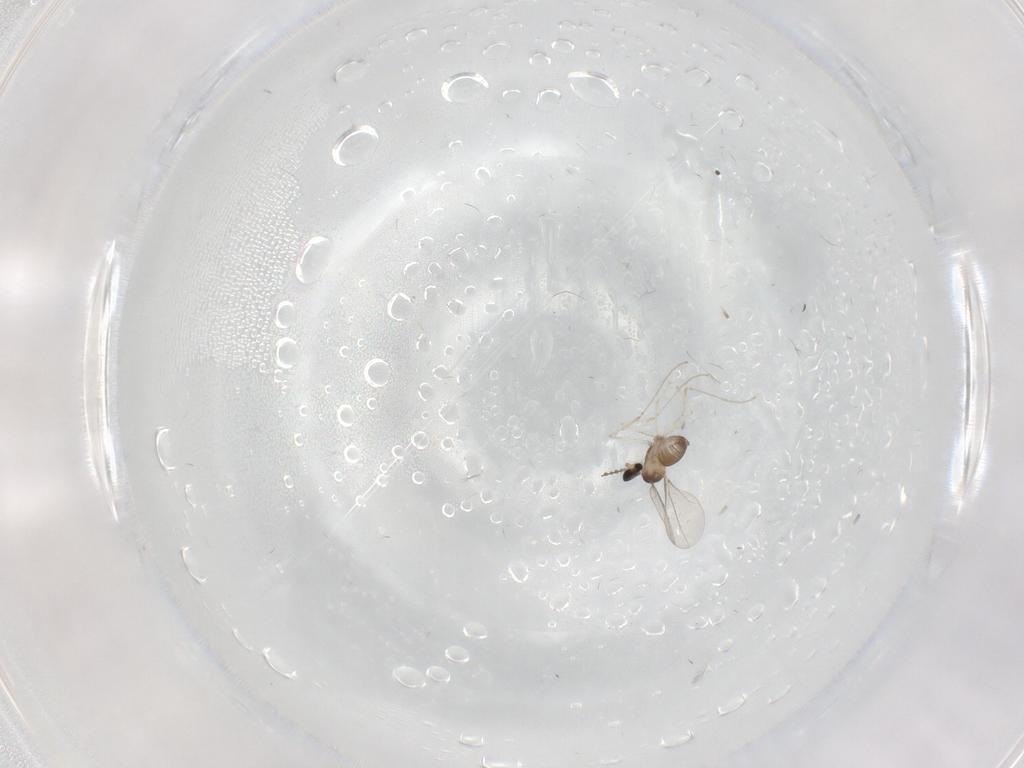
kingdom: Animalia
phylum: Arthropoda
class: Insecta
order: Diptera
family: Cecidomyiidae
